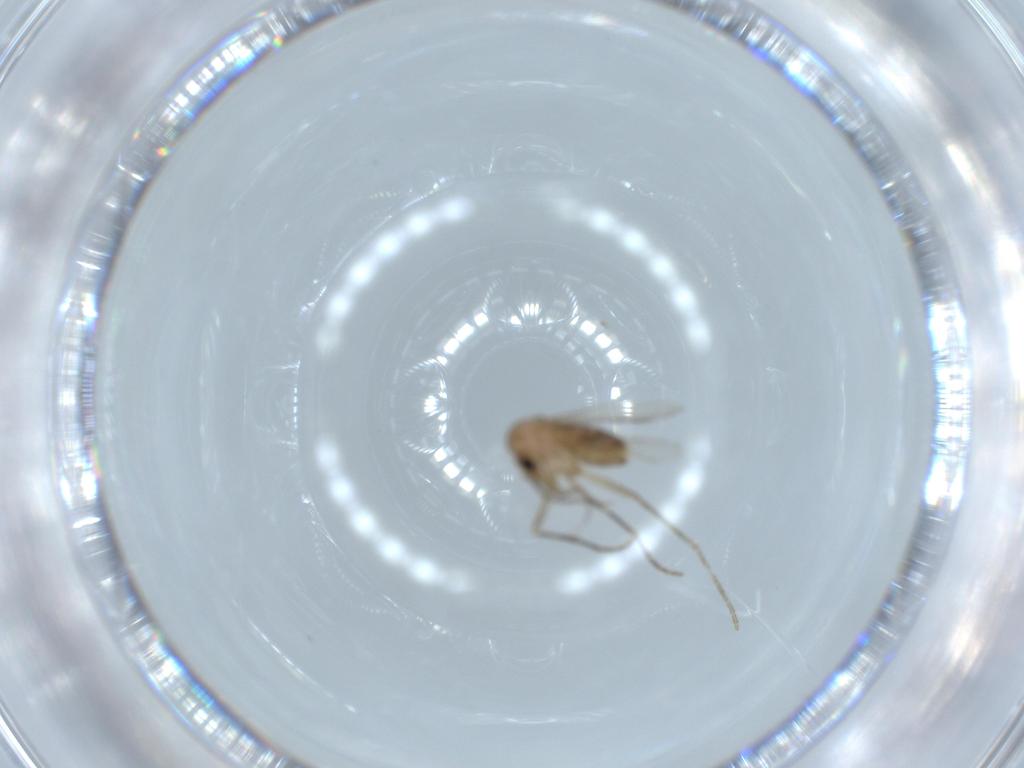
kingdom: Animalia
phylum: Arthropoda
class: Insecta
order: Diptera
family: Psychodidae
